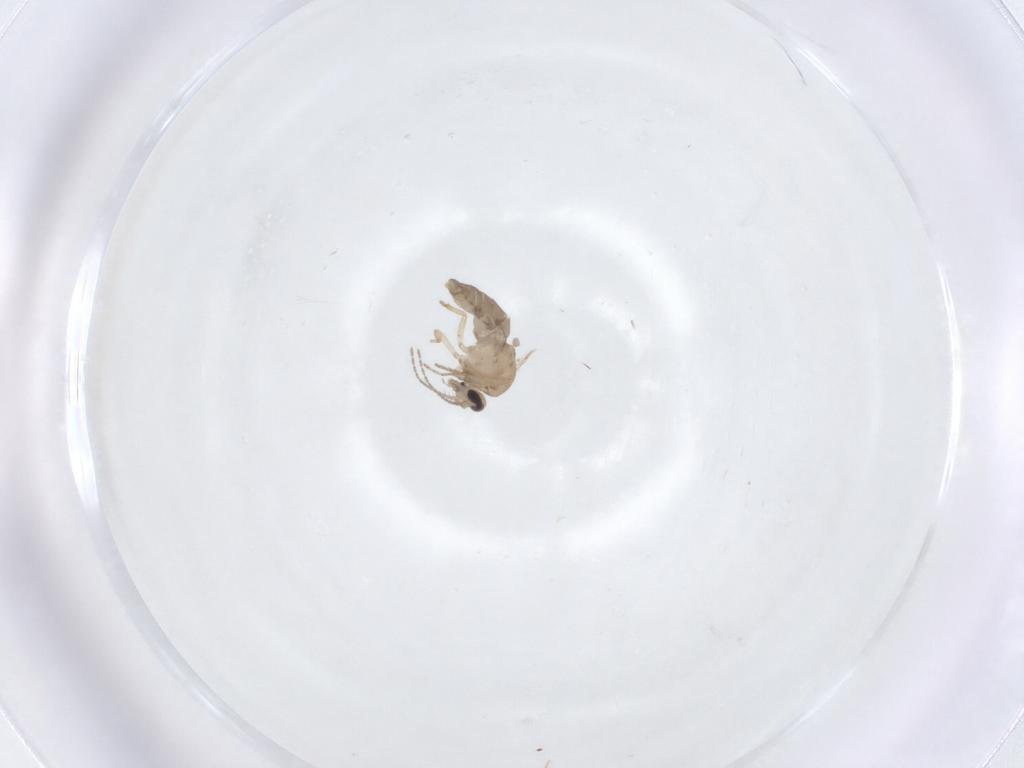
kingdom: Animalia
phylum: Arthropoda
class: Insecta
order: Diptera
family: Ceratopogonidae
